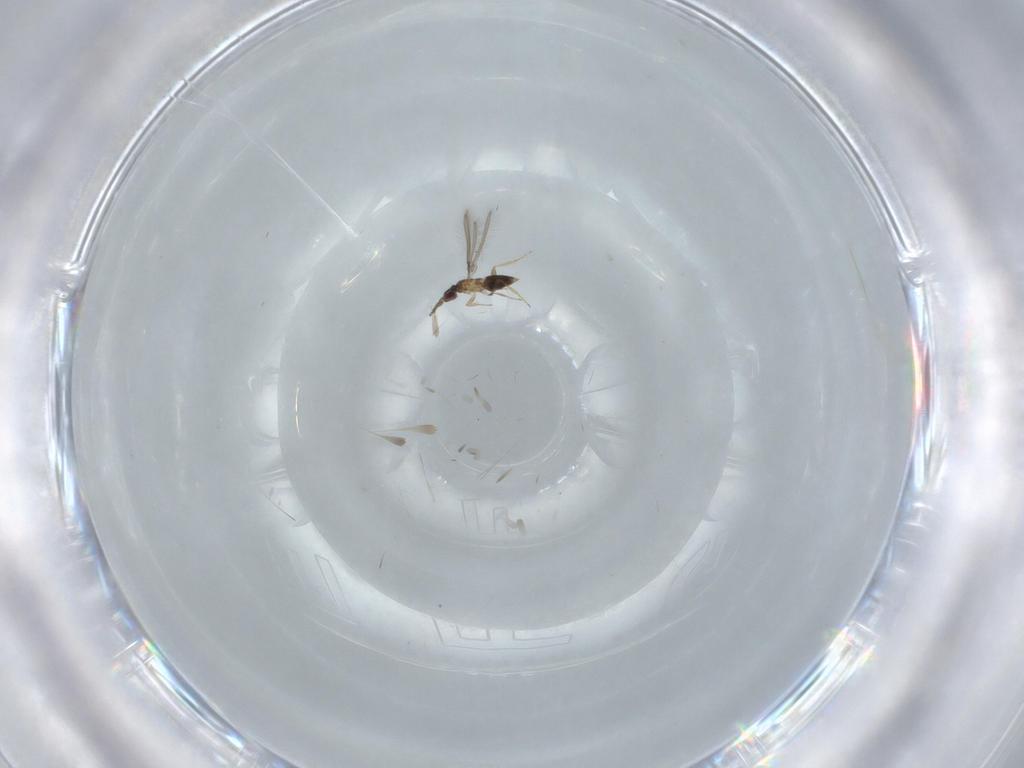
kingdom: Animalia
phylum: Arthropoda
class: Insecta
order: Hymenoptera
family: Mymaridae
